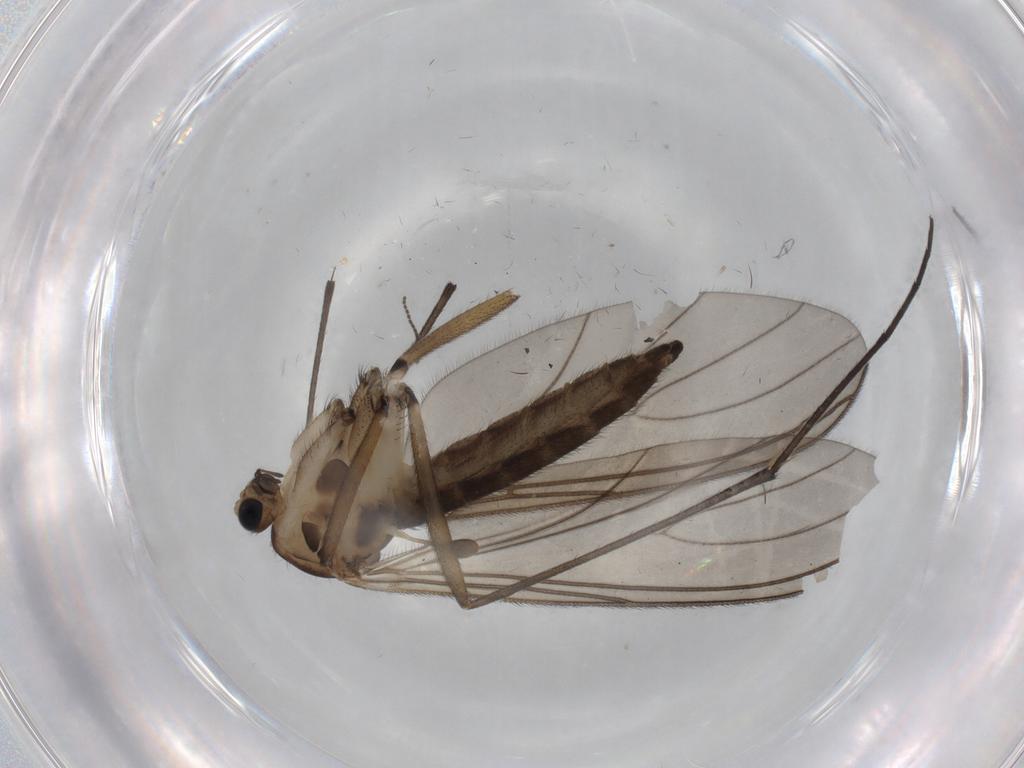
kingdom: Animalia
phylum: Arthropoda
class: Insecta
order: Diptera
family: Sciaridae
